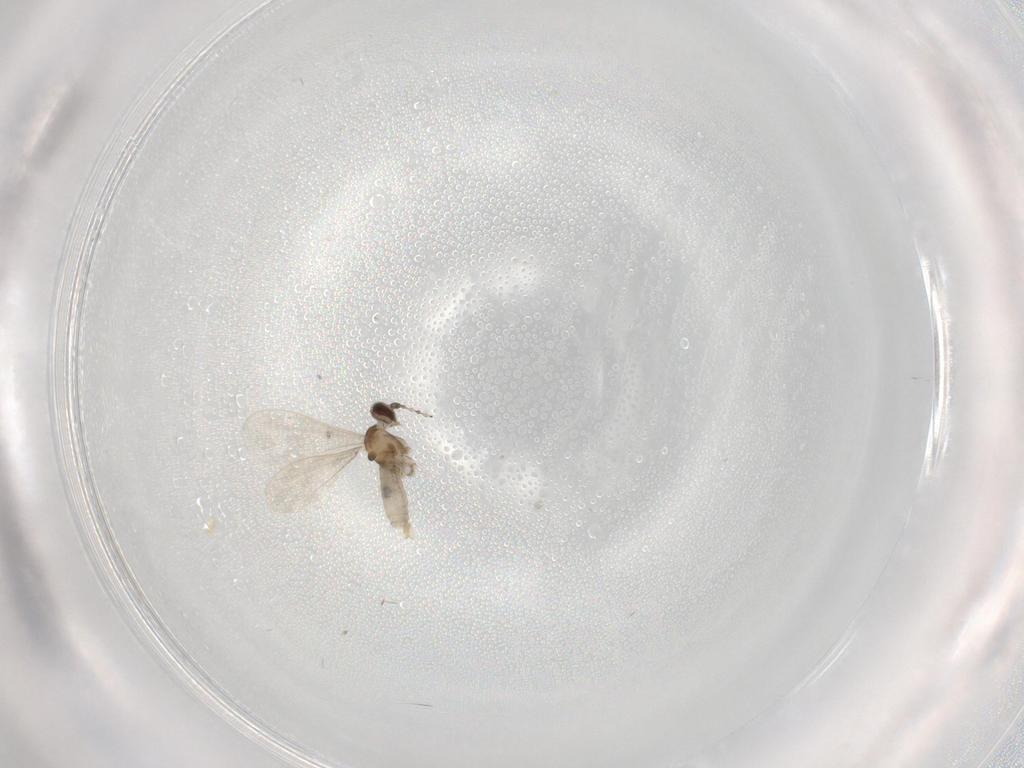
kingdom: Animalia
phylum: Arthropoda
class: Insecta
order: Diptera
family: Cecidomyiidae
